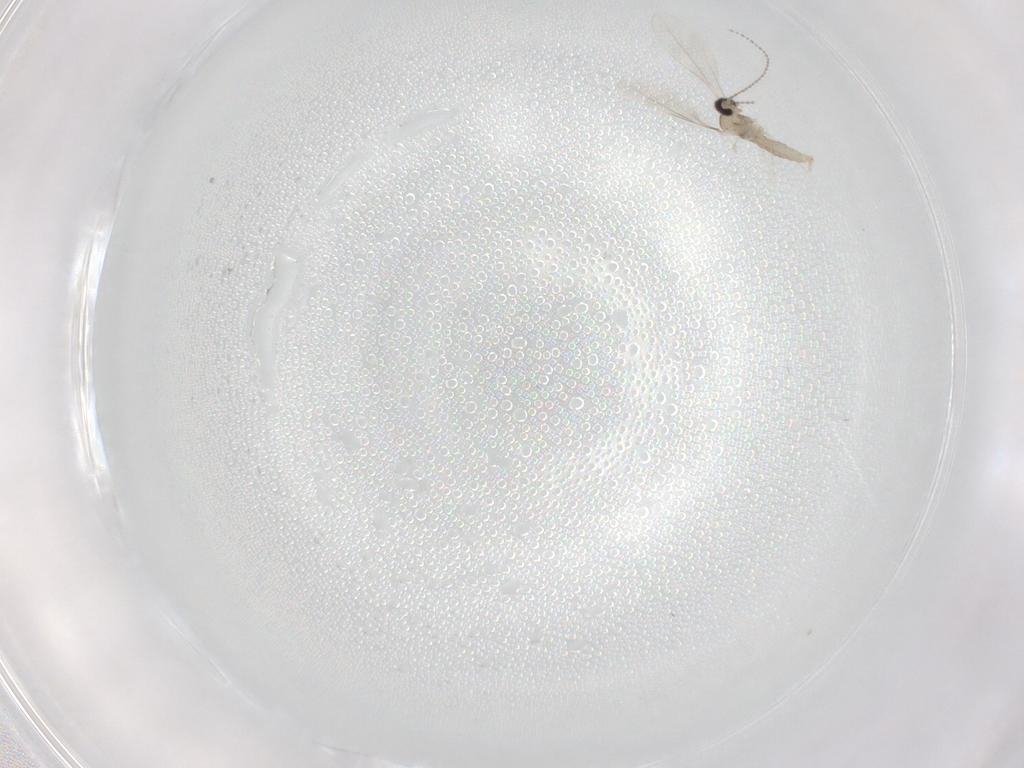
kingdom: Animalia
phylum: Arthropoda
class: Insecta
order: Diptera
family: Cecidomyiidae
